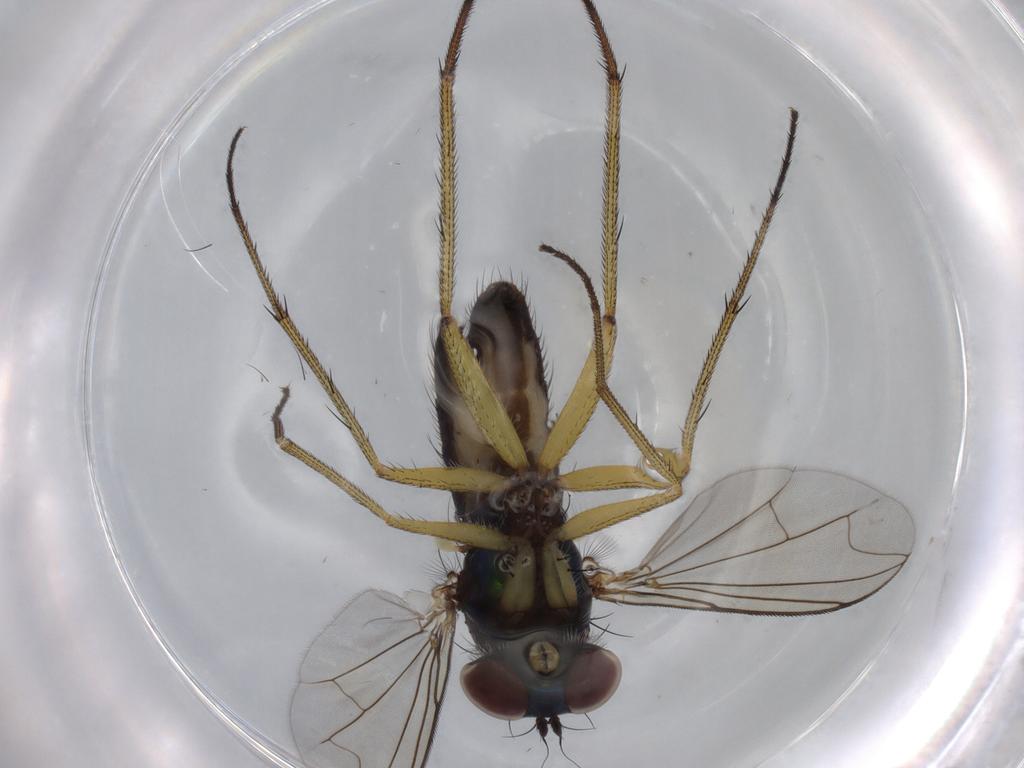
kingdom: Animalia
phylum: Arthropoda
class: Insecta
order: Diptera
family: Dolichopodidae
